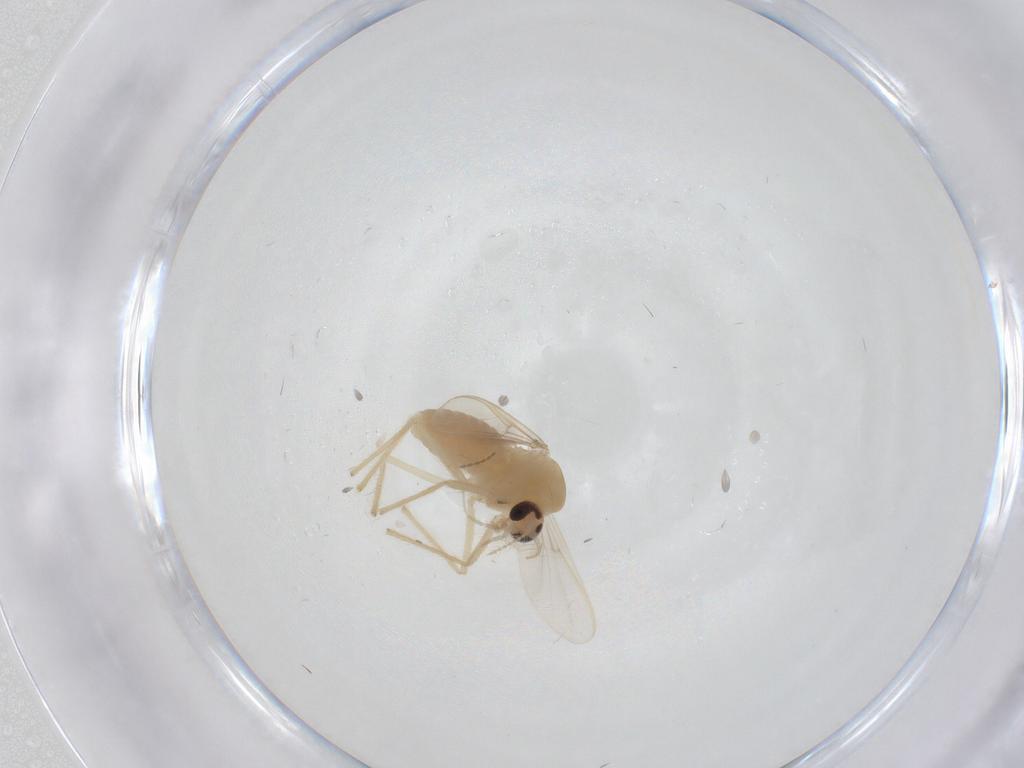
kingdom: Animalia
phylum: Arthropoda
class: Insecta
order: Diptera
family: Chironomidae
